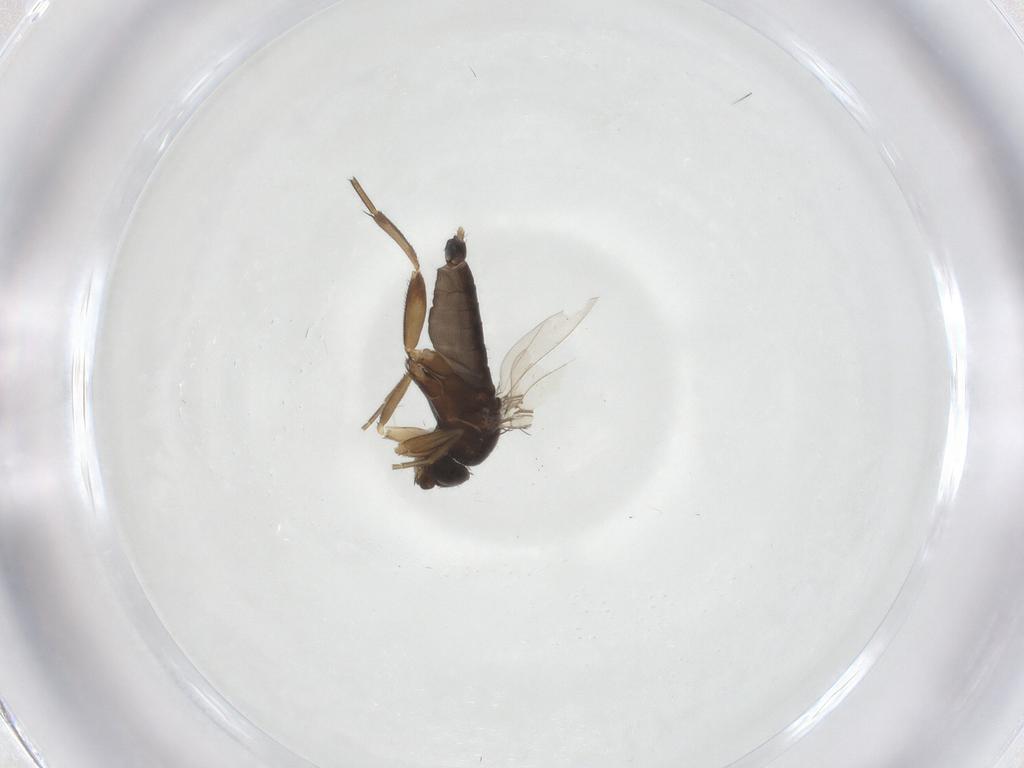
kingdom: Animalia
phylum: Arthropoda
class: Insecta
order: Diptera
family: Phoridae
